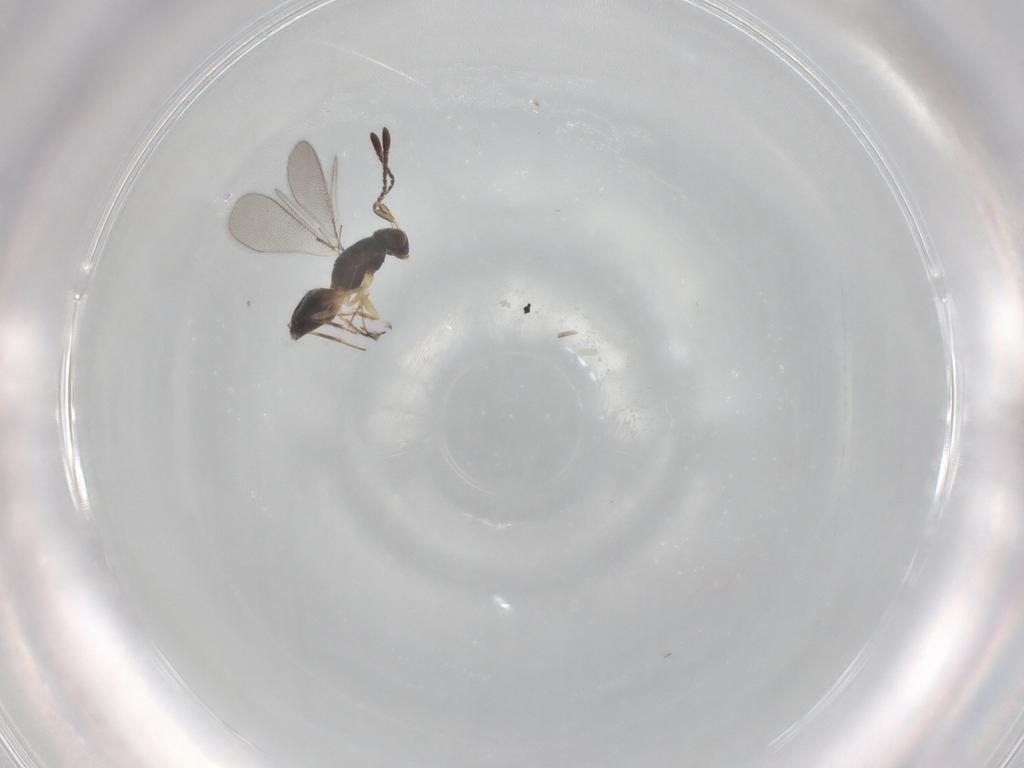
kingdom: Animalia
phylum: Arthropoda
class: Insecta
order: Hymenoptera
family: Mymaridae
